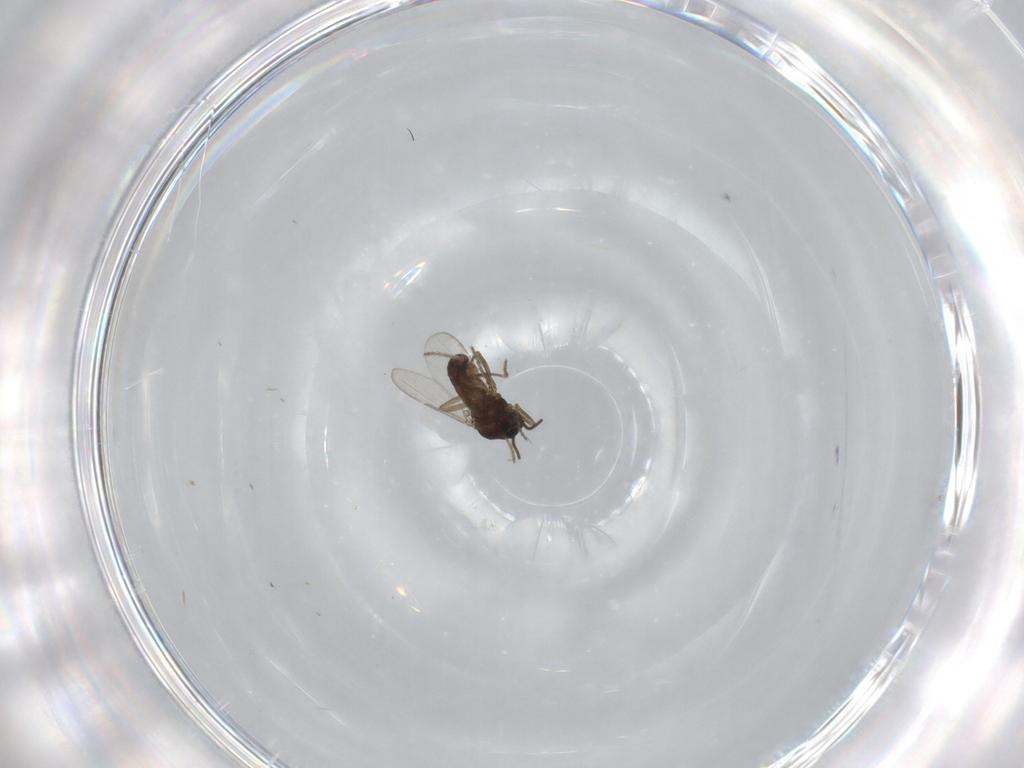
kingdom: Animalia
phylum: Arthropoda
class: Insecta
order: Diptera
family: Ceratopogonidae
